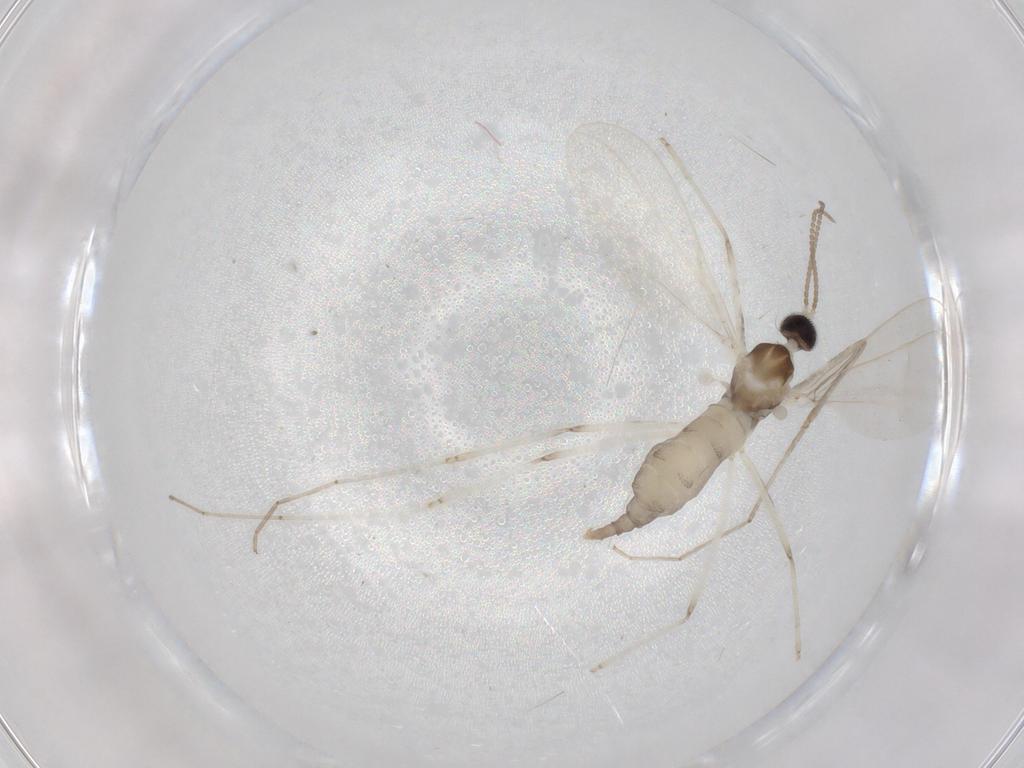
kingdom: Animalia
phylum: Arthropoda
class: Insecta
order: Diptera
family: Cecidomyiidae
